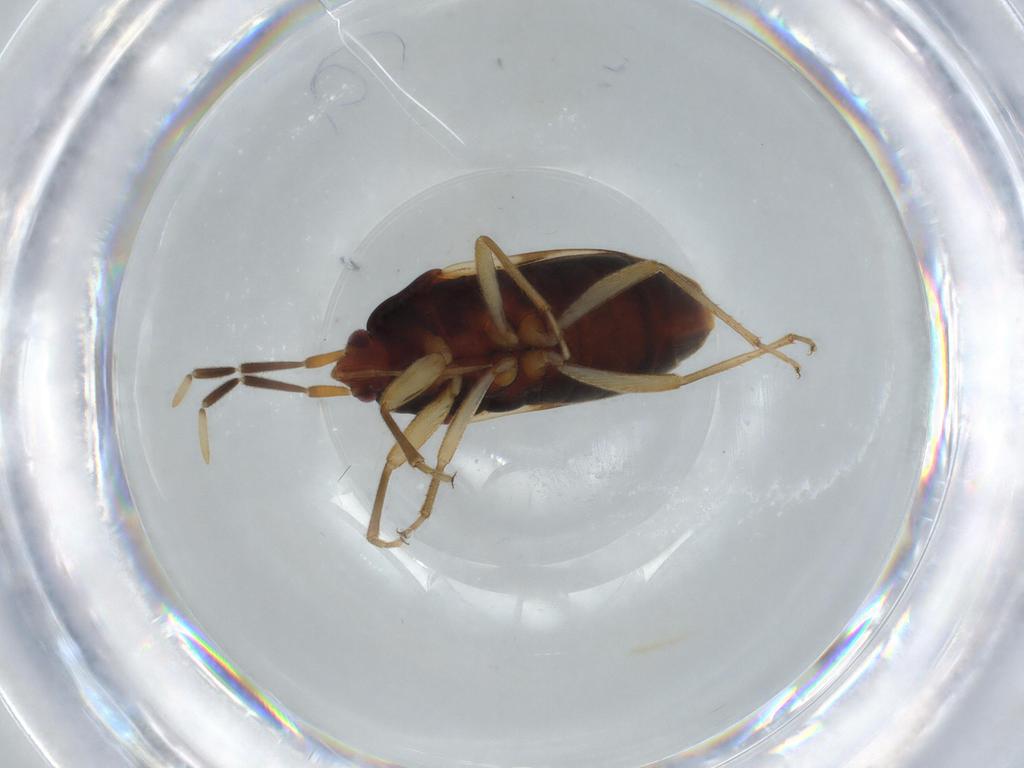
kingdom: Animalia
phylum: Arthropoda
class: Insecta
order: Hemiptera
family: Rhyparochromidae
